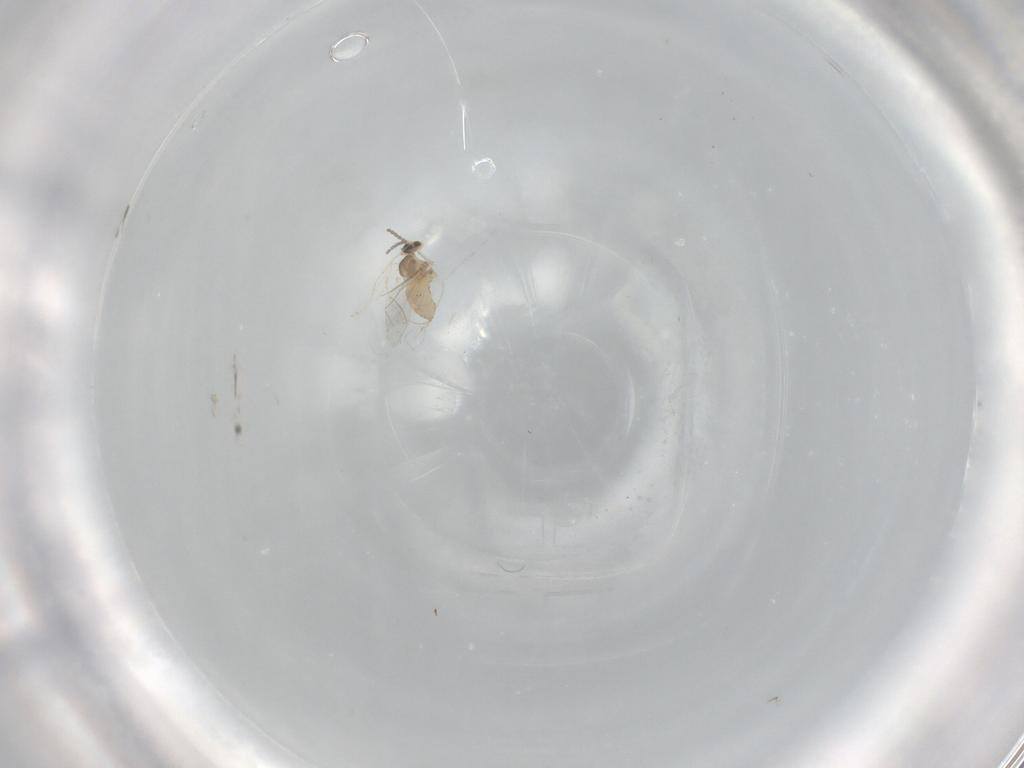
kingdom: Animalia
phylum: Arthropoda
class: Insecta
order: Diptera
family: Cecidomyiidae
